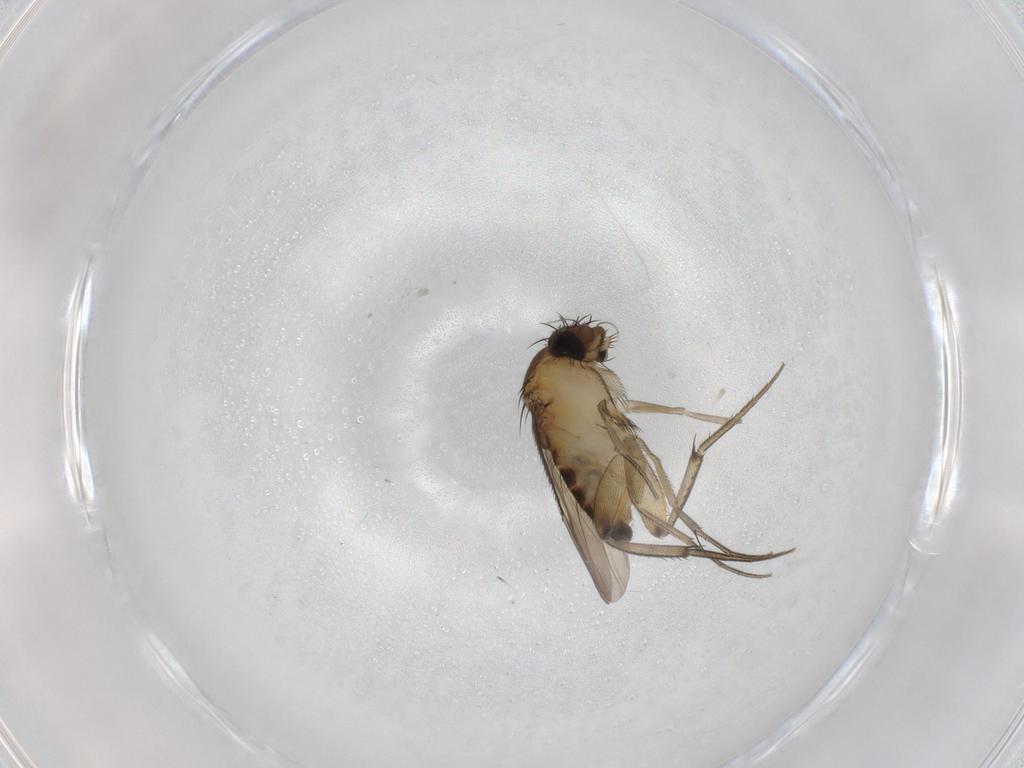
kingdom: Animalia
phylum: Arthropoda
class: Insecta
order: Diptera
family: Phoridae
